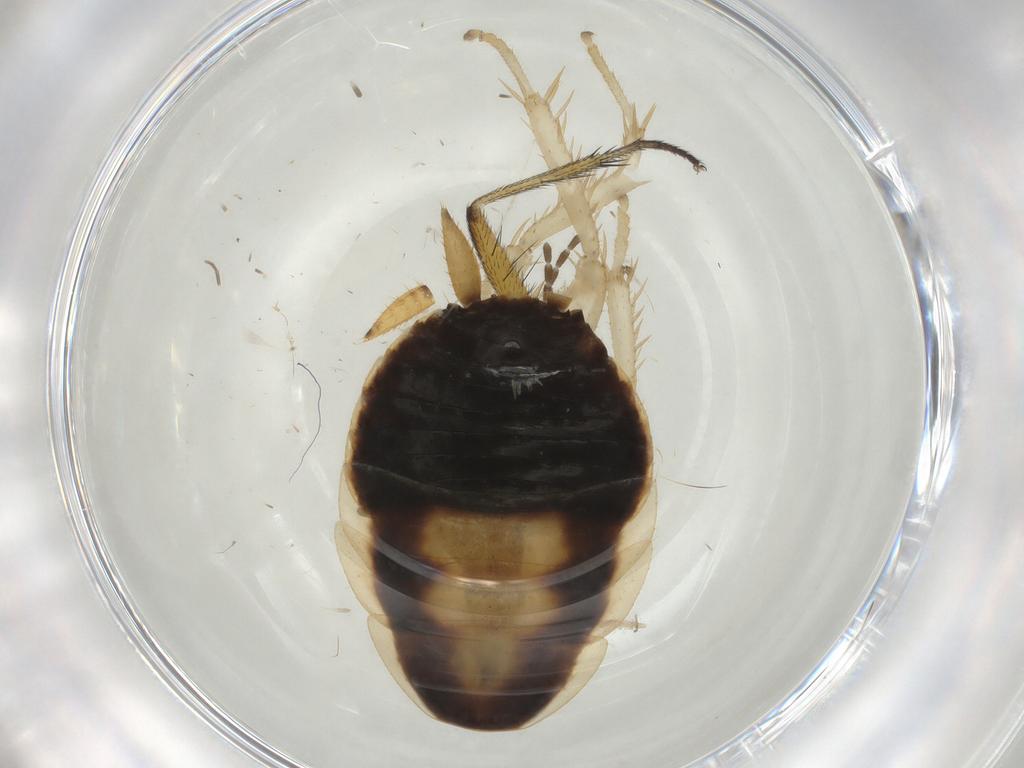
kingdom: Animalia
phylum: Arthropoda
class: Insecta
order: Blattodea
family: Ectobiidae
